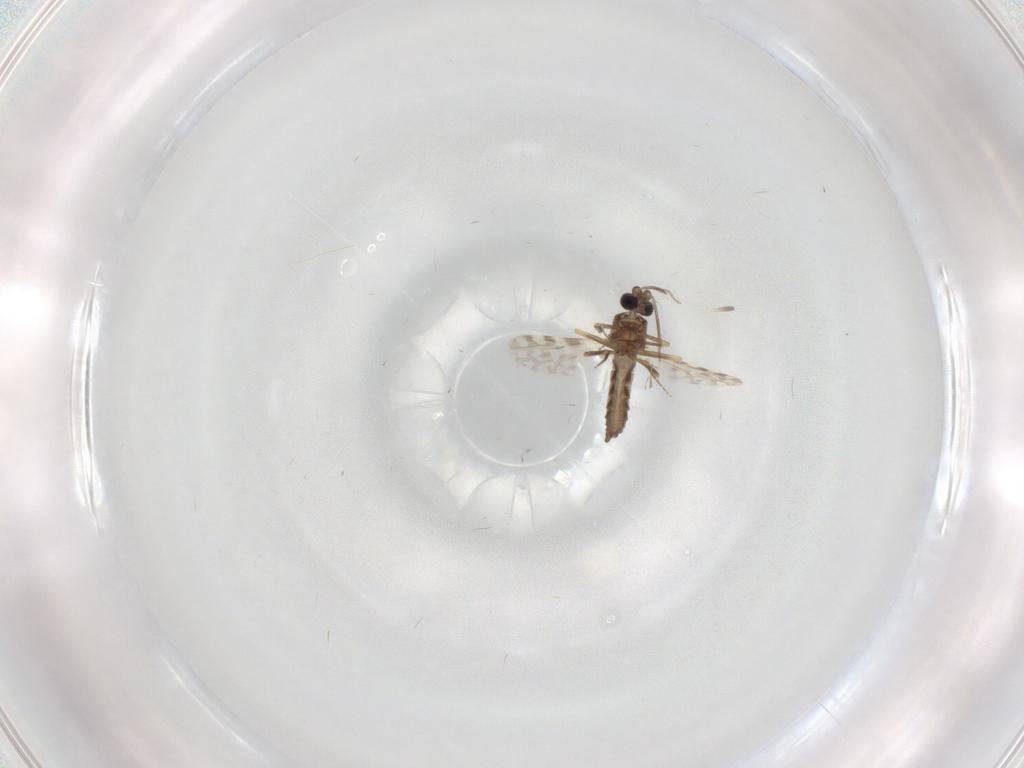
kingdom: Animalia
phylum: Arthropoda
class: Insecta
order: Diptera
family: Ceratopogonidae
